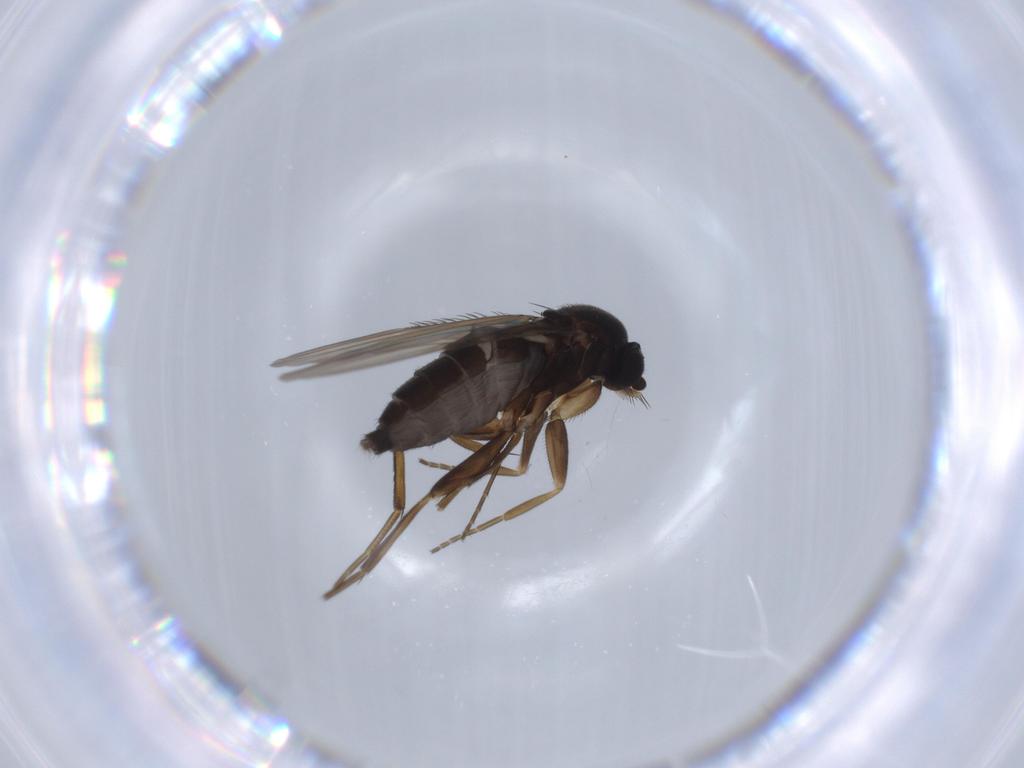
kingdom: Animalia
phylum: Arthropoda
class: Insecta
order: Diptera
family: Phoridae
